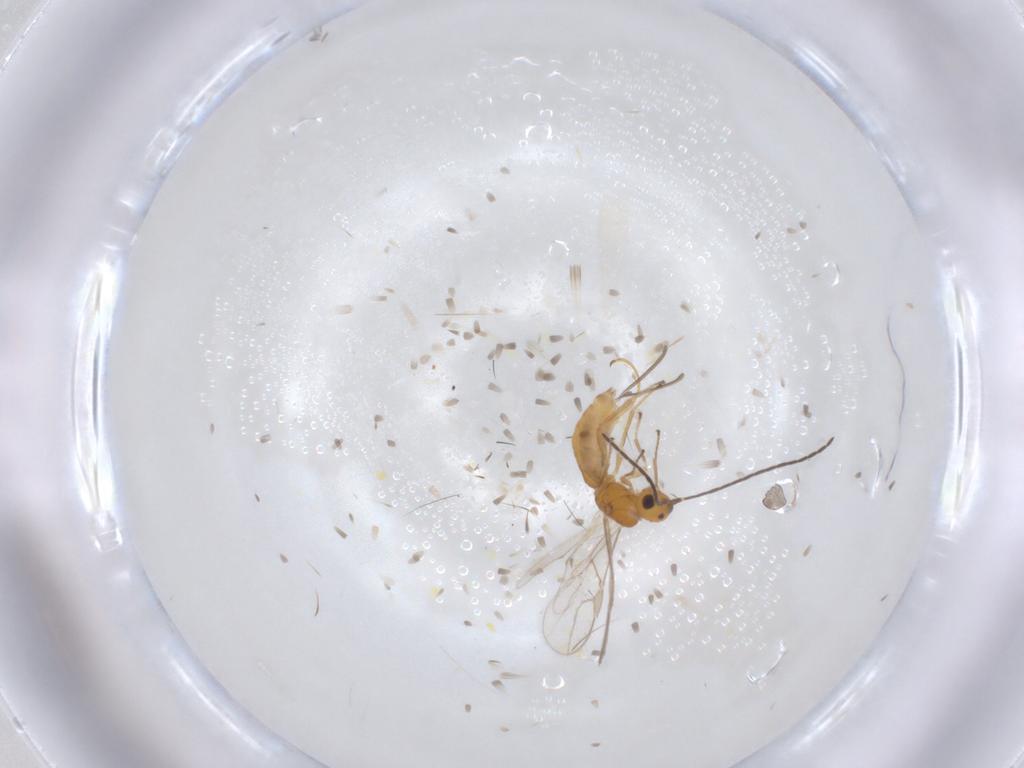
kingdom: Animalia
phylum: Arthropoda
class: Insecta
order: Hymenoptera
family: Braconidae
